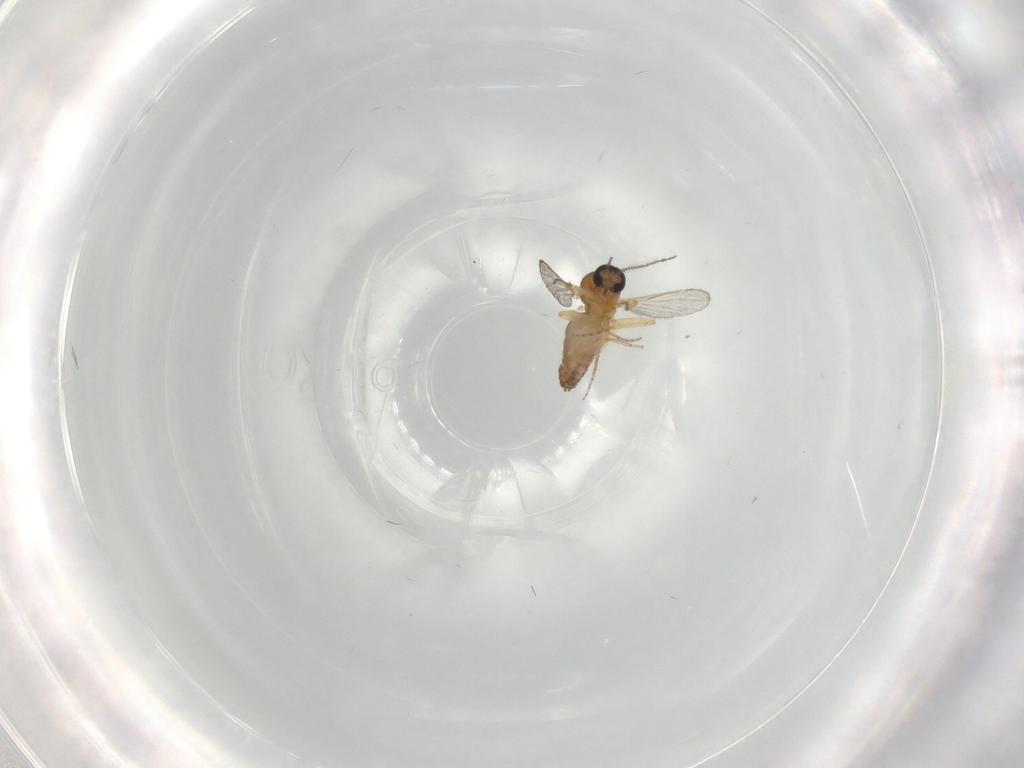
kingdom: Animalia
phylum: Arthropoda
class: Insecta
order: Diptera
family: Ceratopogonidae
